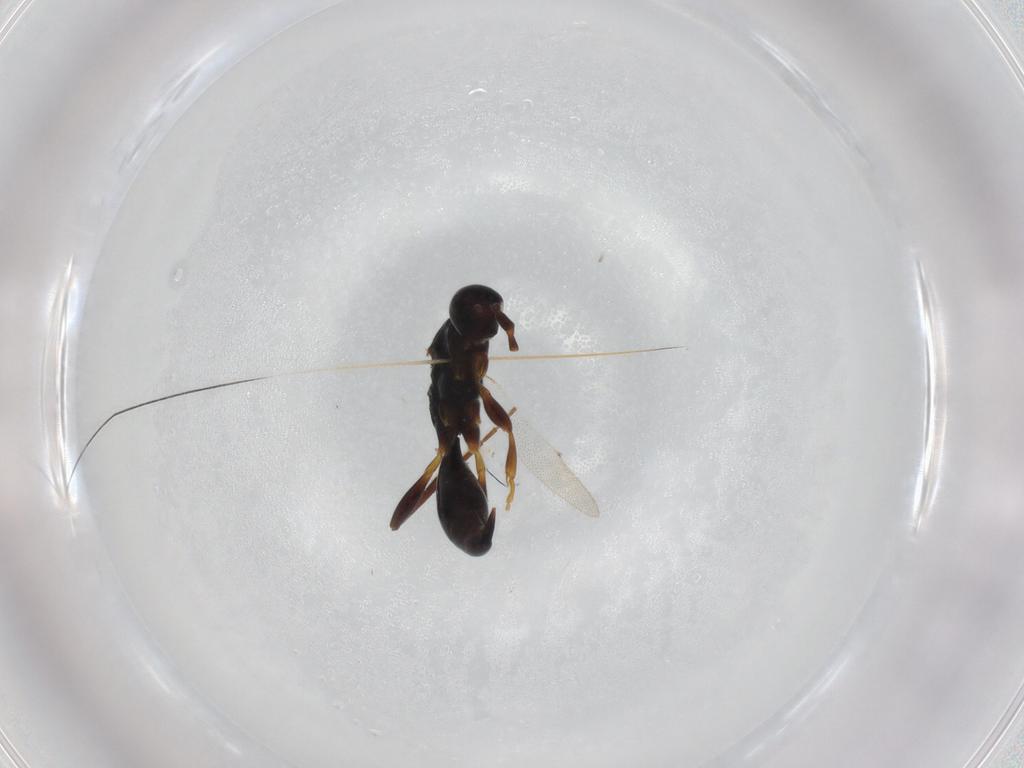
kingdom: Animalia
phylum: Arthropoda
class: Insecta
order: Hymenoptera
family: Proctotrupidae
